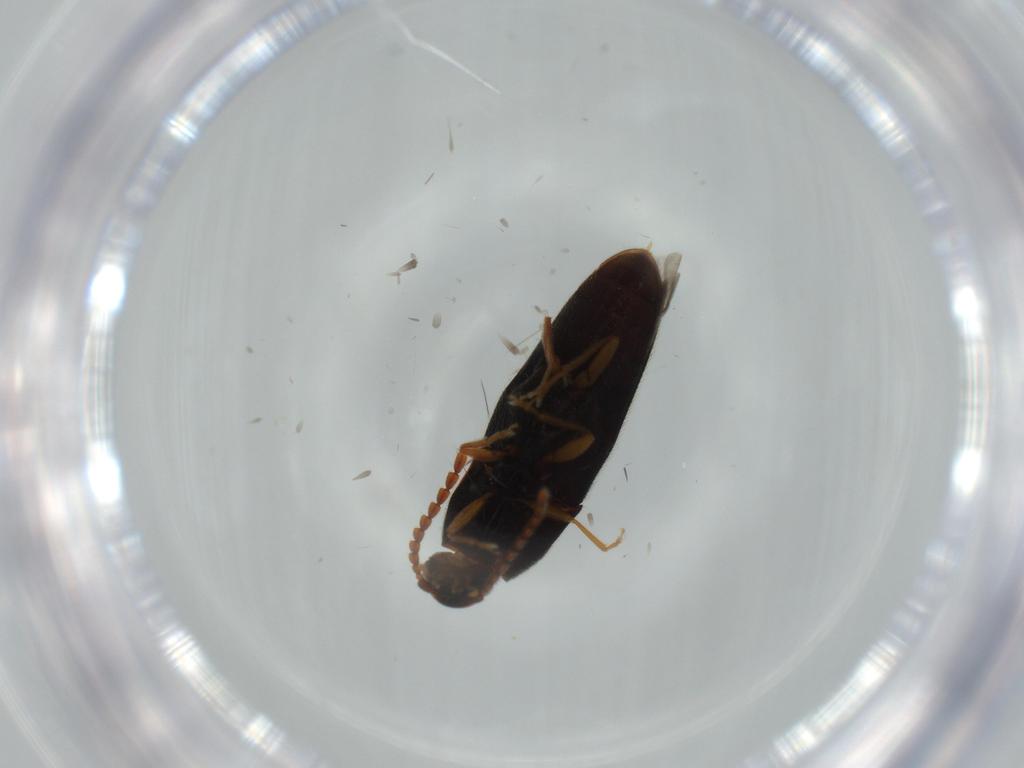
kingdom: Animalia
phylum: Arthropoda
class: Insecta
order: Coleoptera
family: Elateridae
